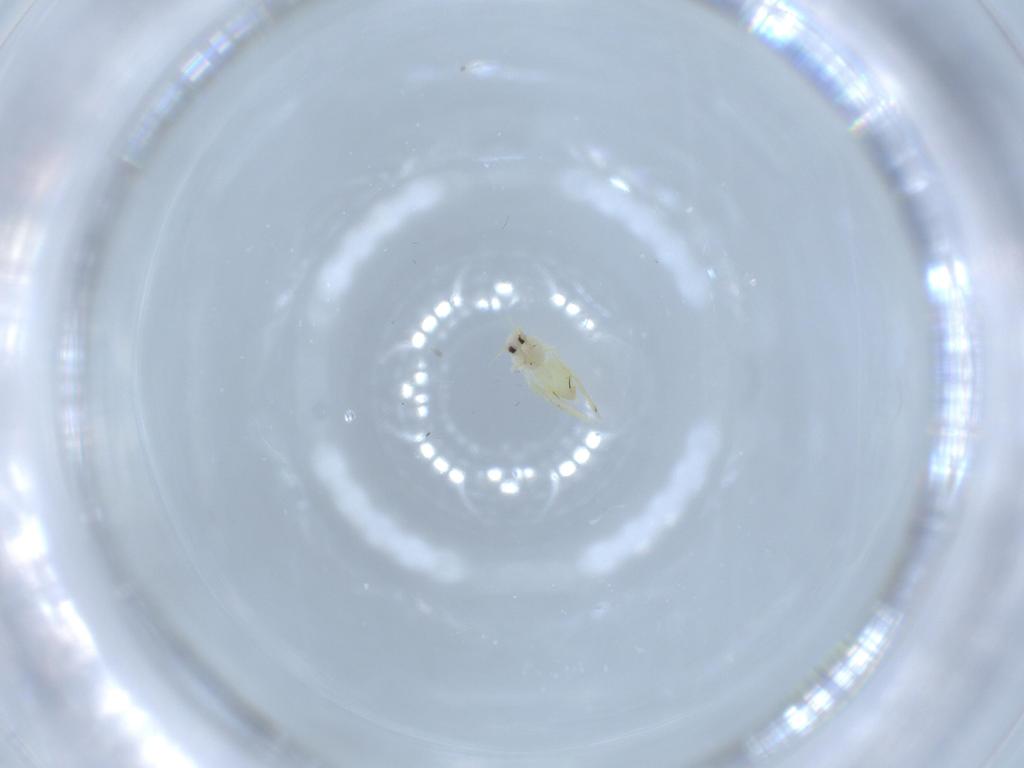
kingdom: Animalia
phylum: Arthropoda
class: Insecta
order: Hemiptera
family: Aleyrodidae
